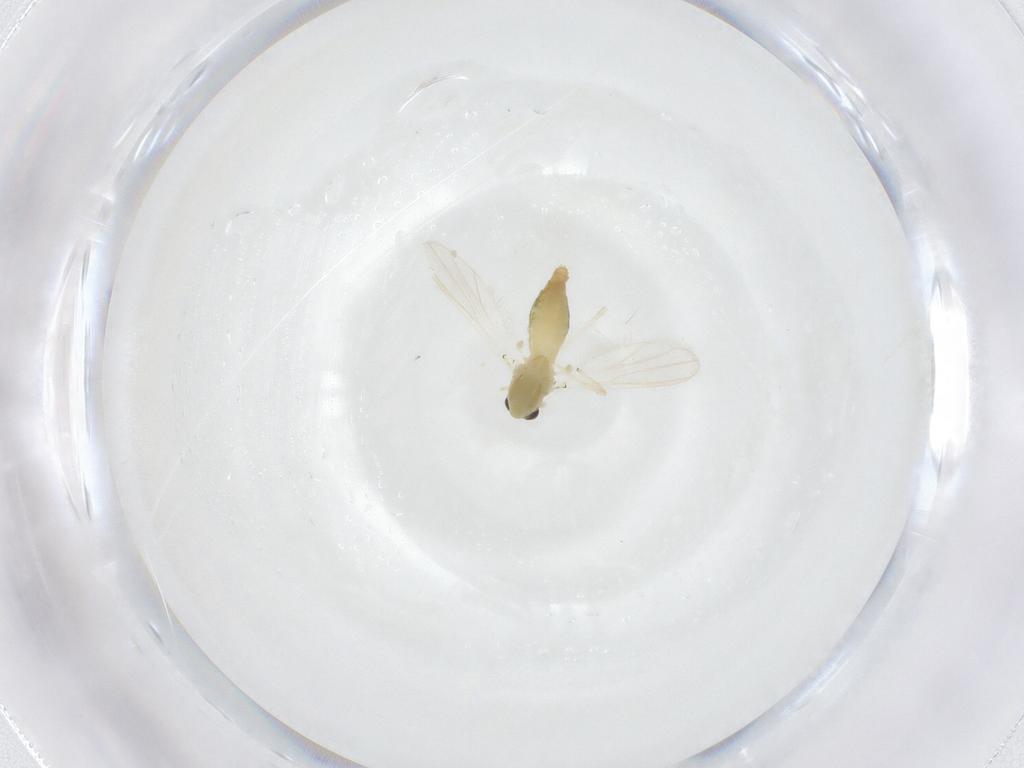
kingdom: Animalia
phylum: Arthropoda
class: Insecta
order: Diptera
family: Chironomidae
